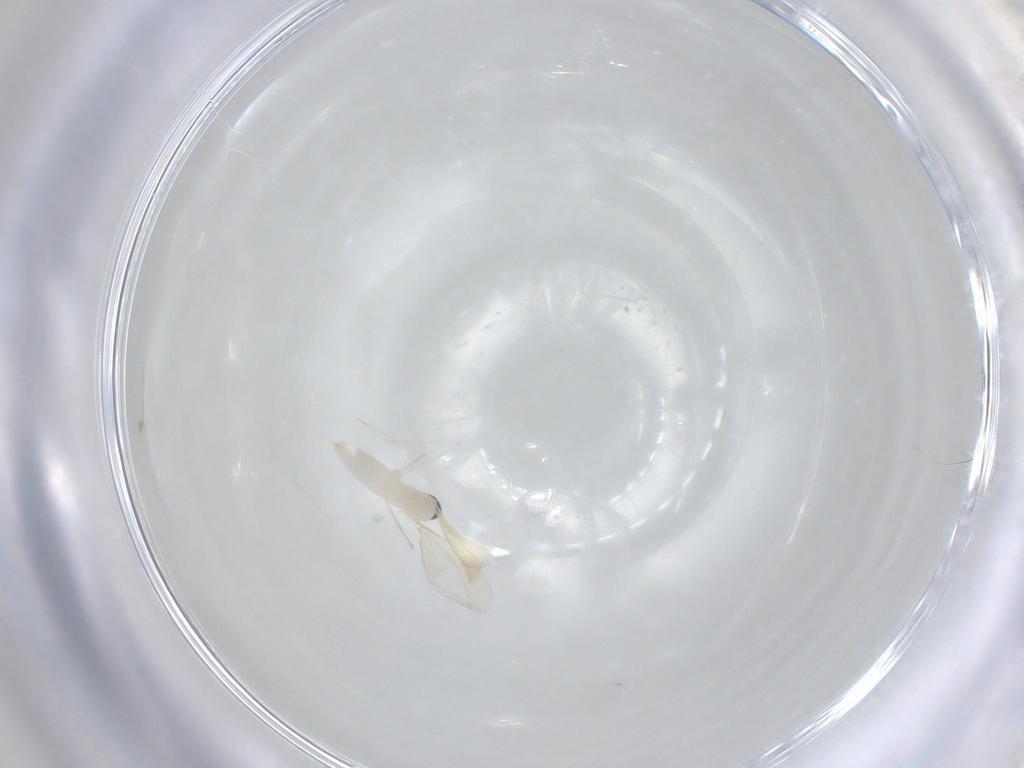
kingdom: Animalia
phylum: Arthropoda
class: Insecta
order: Diptera
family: Cecidomyiidae
